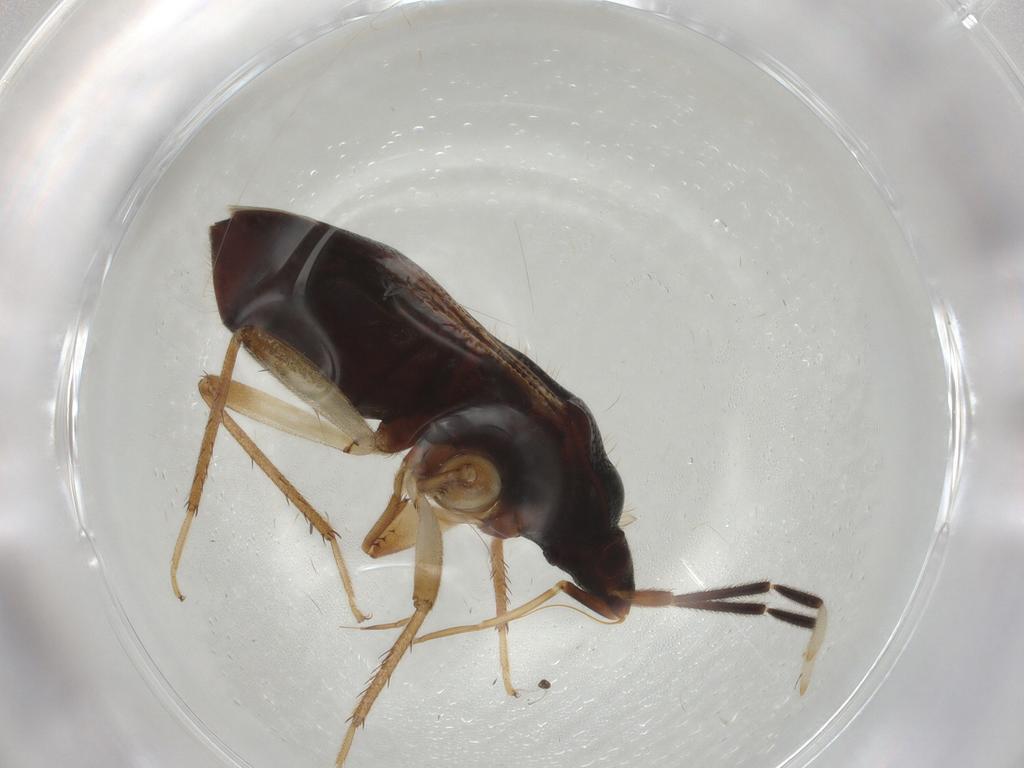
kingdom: Animalia
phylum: Arthropoda
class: Insecta
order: Hemiptera
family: Rhyparochromidae
